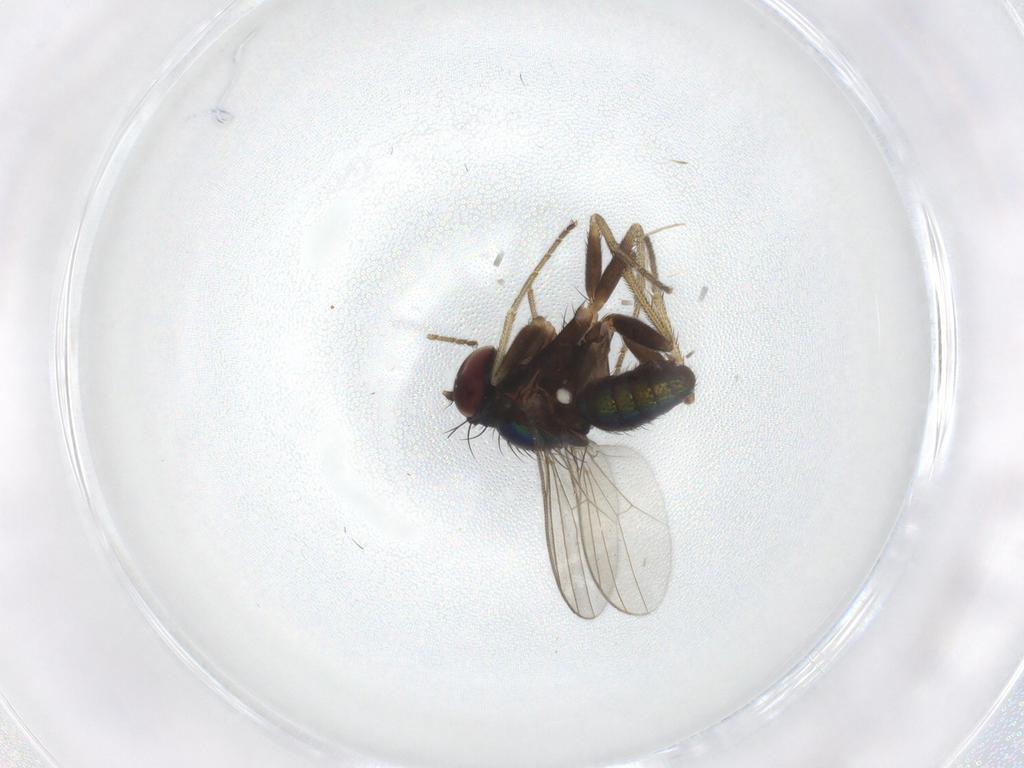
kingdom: Animalia
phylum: Arthropoda
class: Insecta
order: Diptera
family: Dolichopodidae
